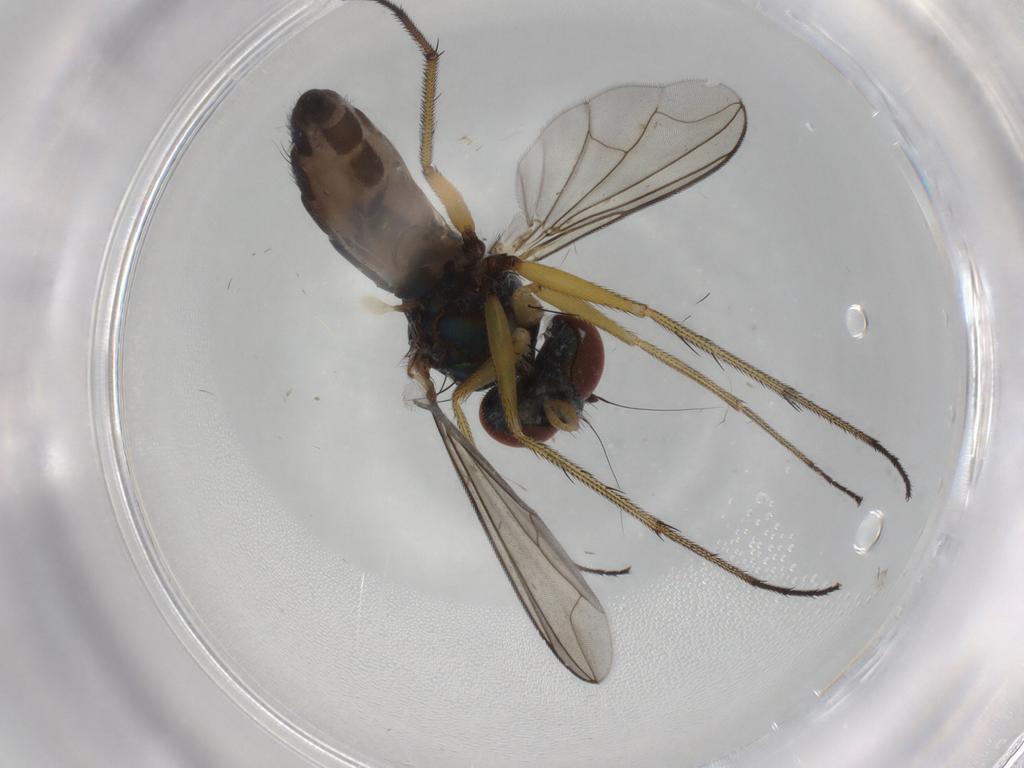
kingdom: Animalia
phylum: Arthropoda
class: Insecta
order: Diptera
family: Dolichopodidae
